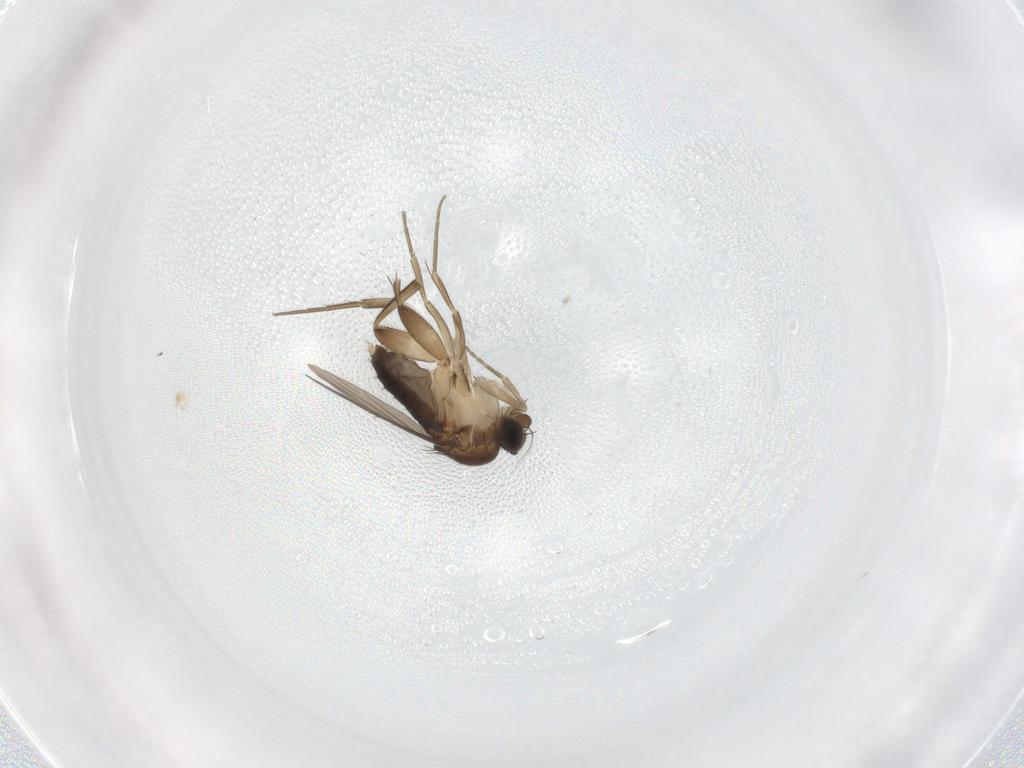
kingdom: Animalia
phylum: Arthropoda
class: Insecta
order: Diptera
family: Phoridae
